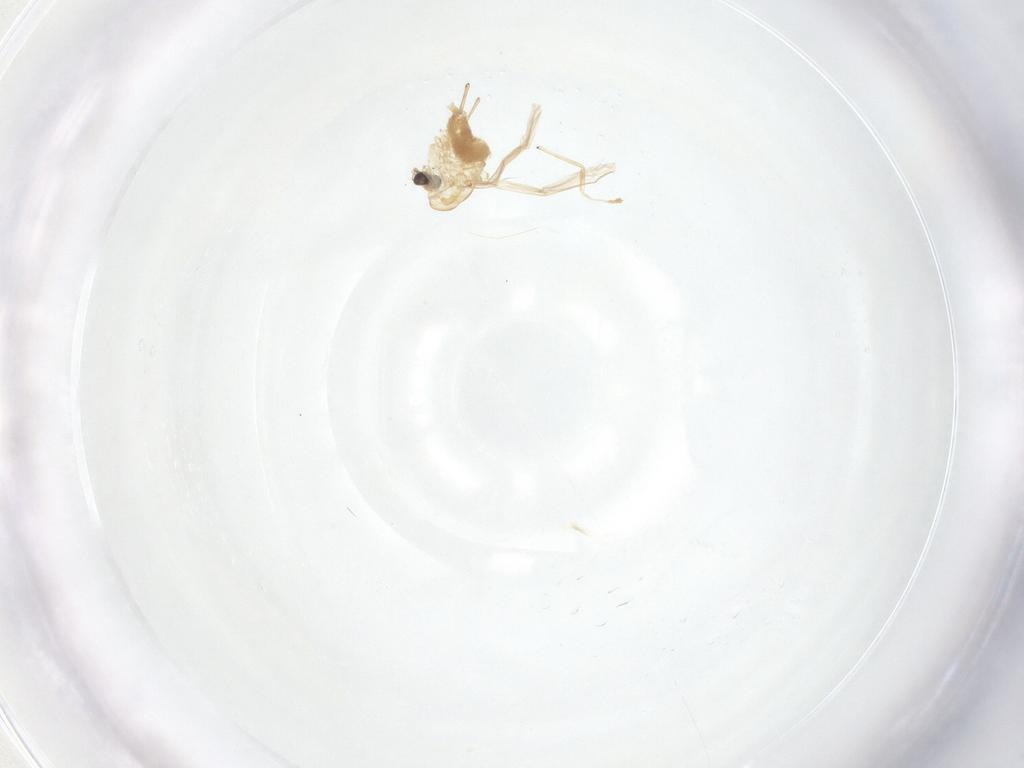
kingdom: Animalia
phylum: Arthropoda
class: Insecta
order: Diptera
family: Chironomidae
